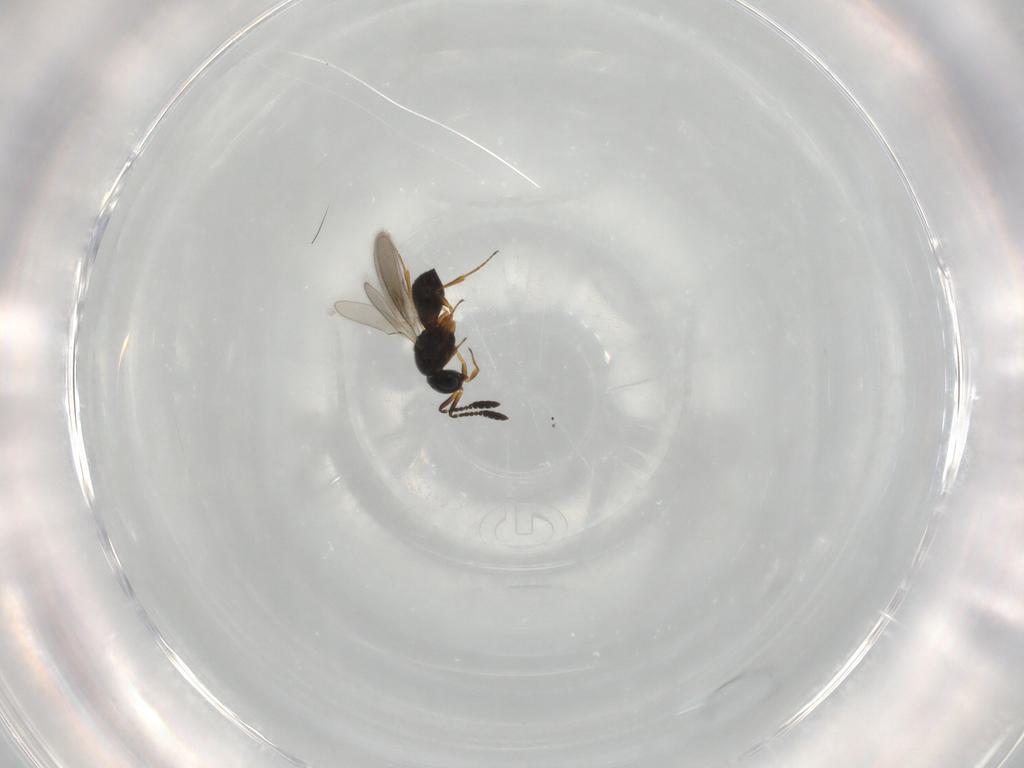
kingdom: Animalia
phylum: Arthropoda
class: Insecta
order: Hymenoptera
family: Scelionidae
